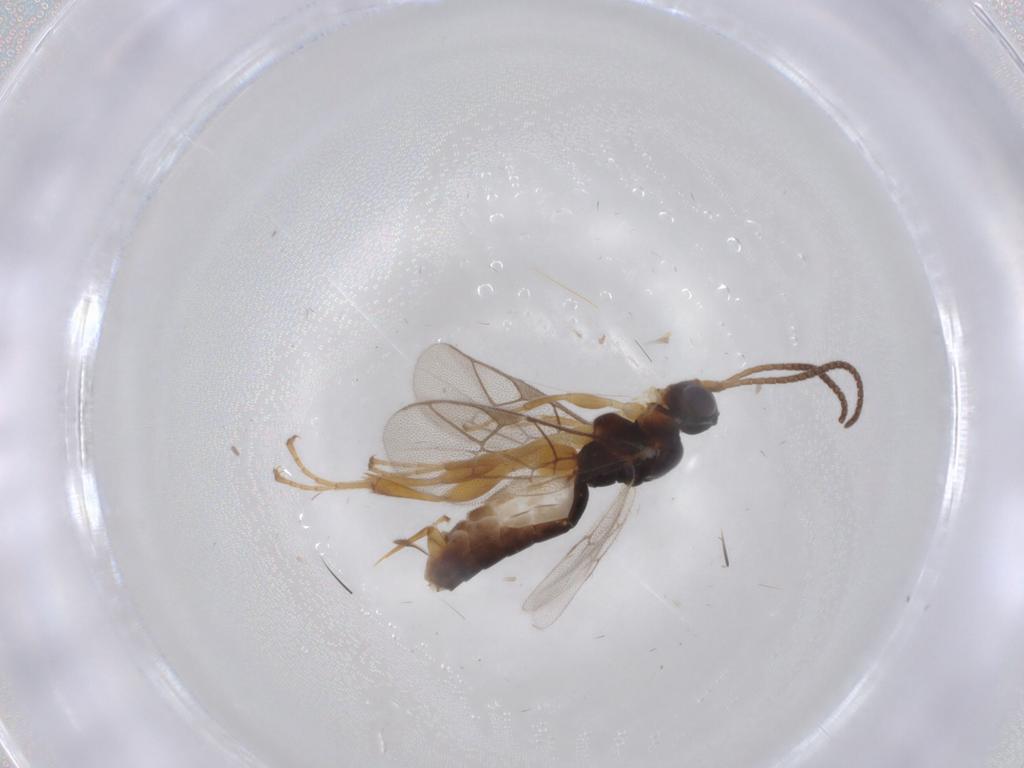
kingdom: Animalia
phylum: Arthropoda
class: Insecta
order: Hymenoptera
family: Ichneumonidae
